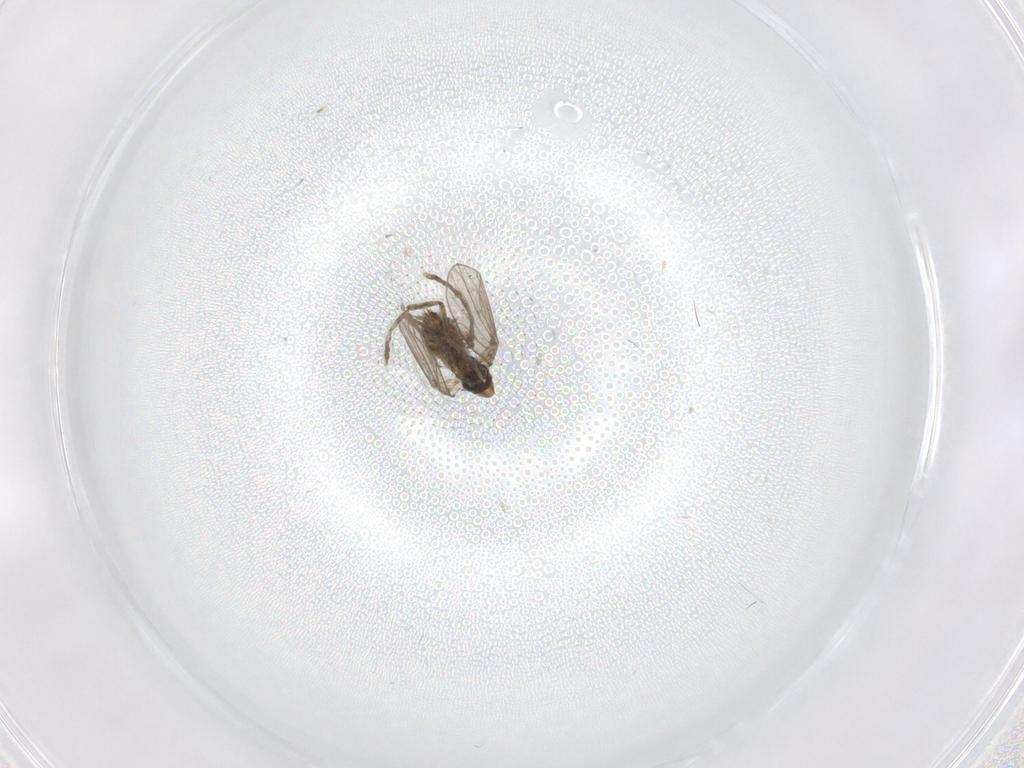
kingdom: Animalia
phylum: Arthropoda
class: Insecta
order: Diptera
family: Psychodidae
